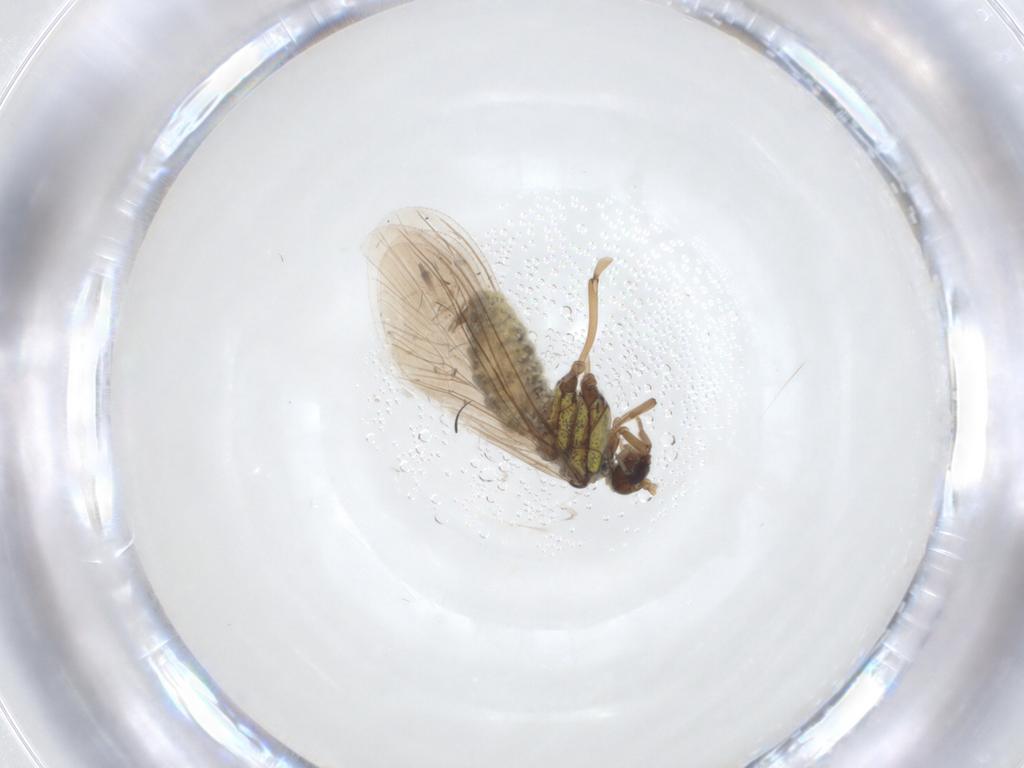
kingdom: Animalia
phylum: Arthropoda
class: Insecta
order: Neuroptera
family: Coniopterygidae
